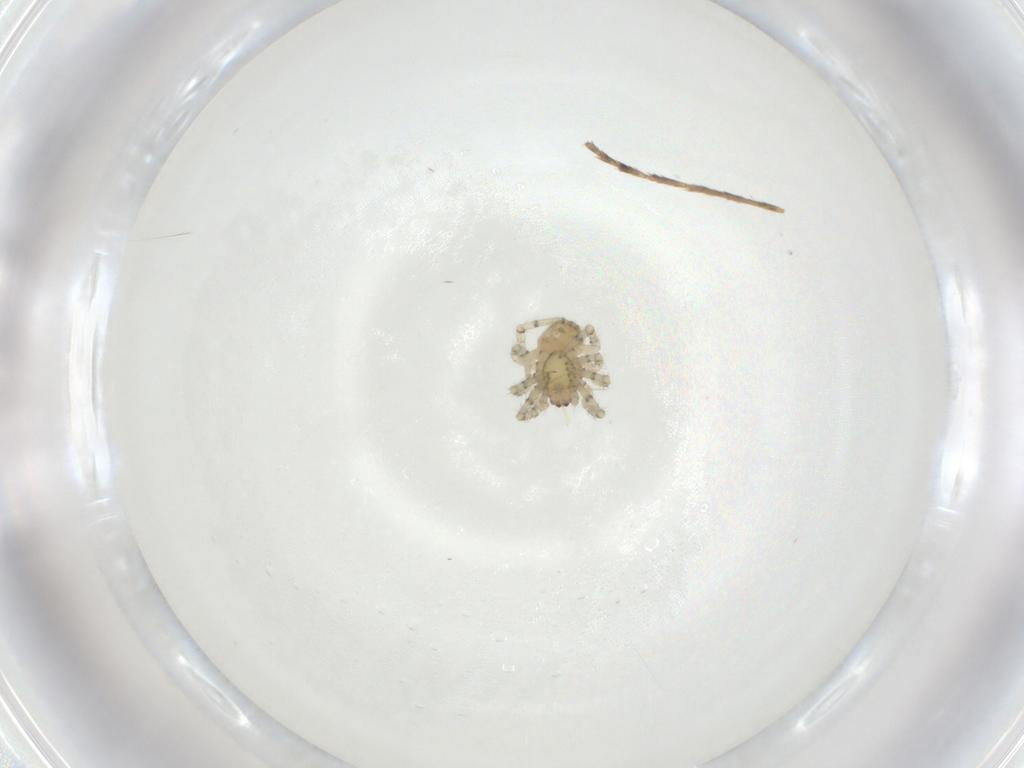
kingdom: Animalia
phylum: Arthropoda
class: Arachnida
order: Araneae
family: Theridiidae
